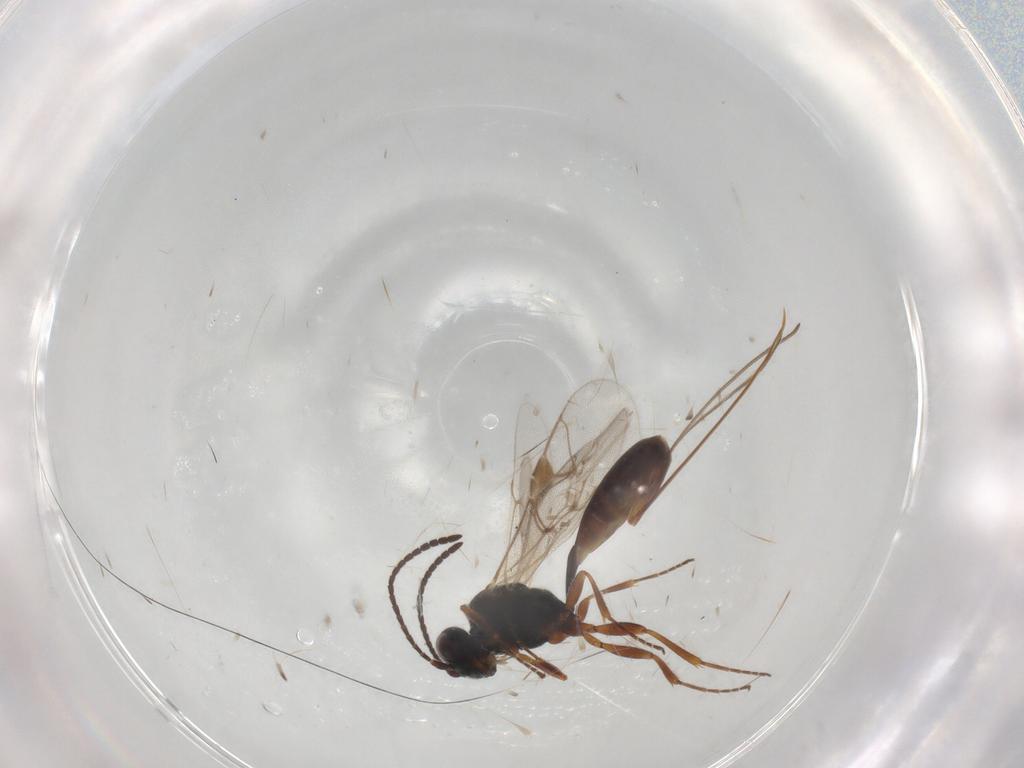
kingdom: Animalia
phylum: Arthropoda
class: Insecta
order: Hymenoptera
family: Ichneumonidae
